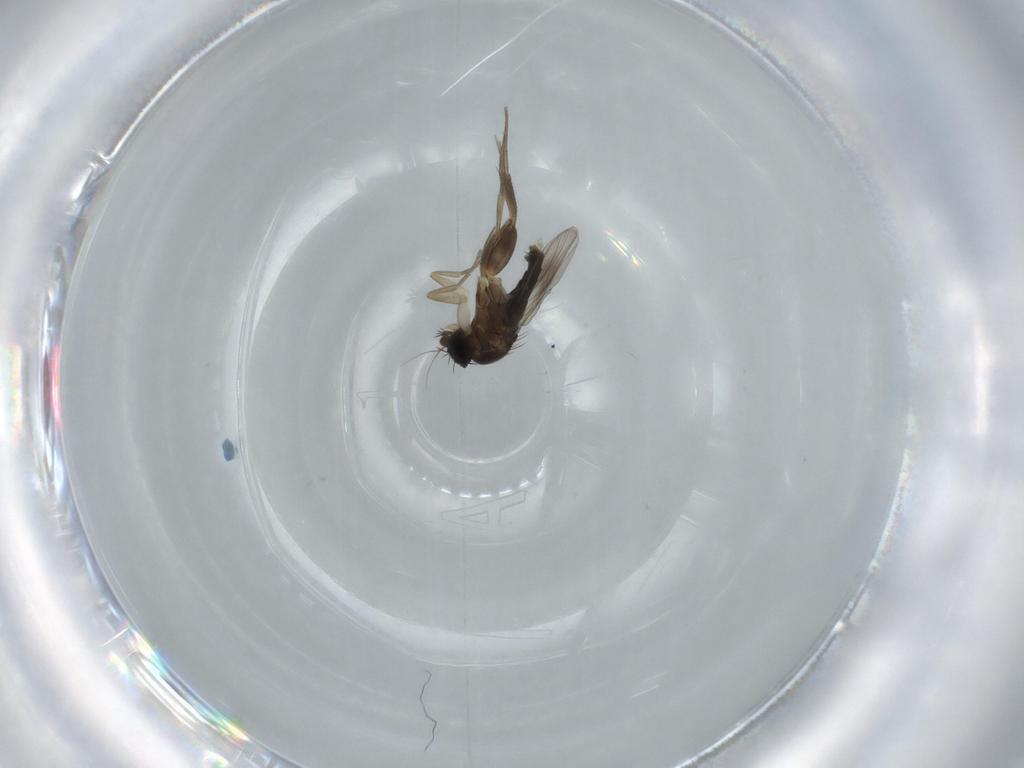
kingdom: Animalia
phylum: Arthropoda
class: Insecta
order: Diptera
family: Phoridae
